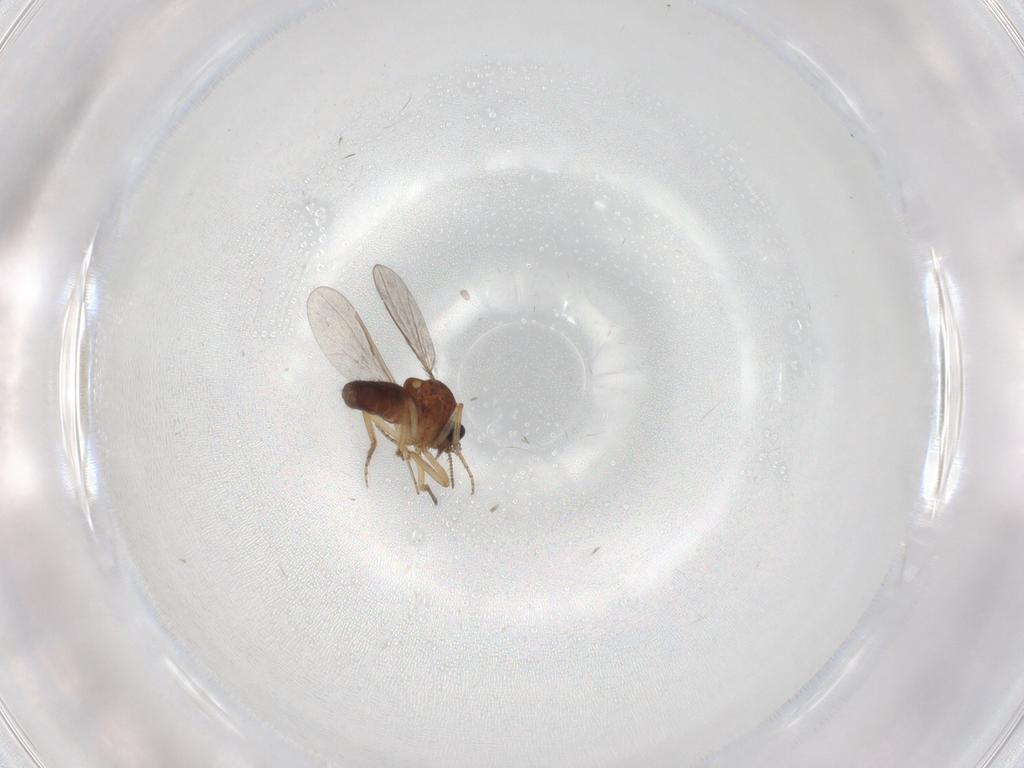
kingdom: Animalia
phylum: Arthropoda
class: Insecta
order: Diptera
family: Ceratopogonidae
